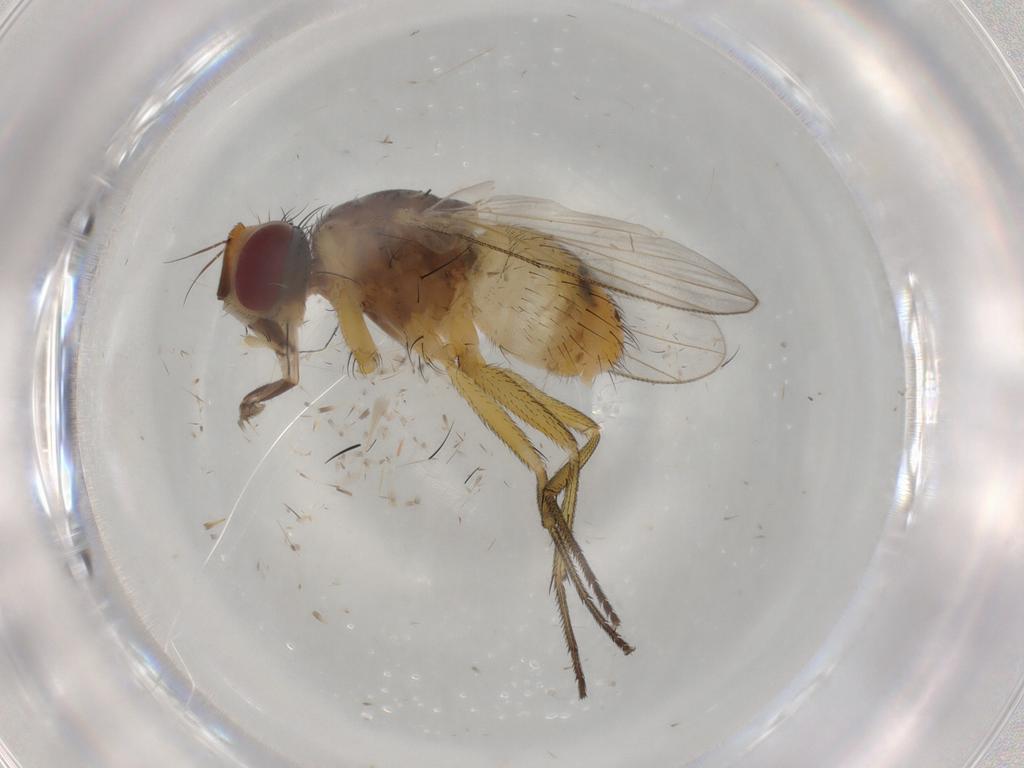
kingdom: Animalia
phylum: Arthropoda
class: Insecta
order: Diptera
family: Muscidae
